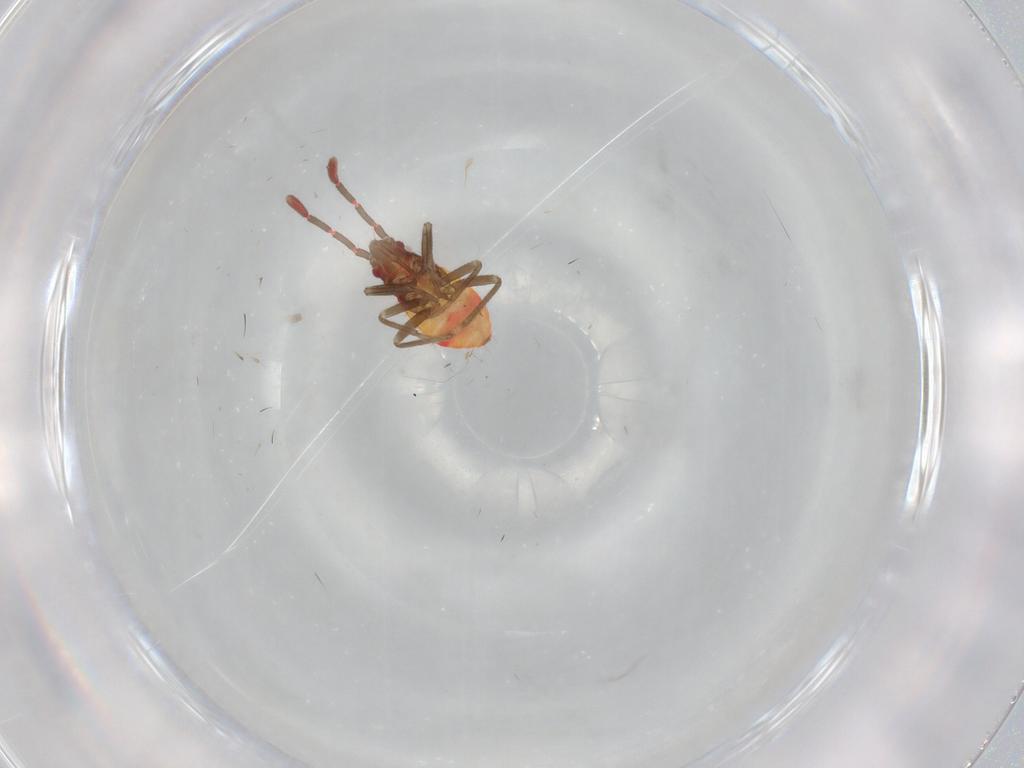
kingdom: Animalia
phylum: Arthropoda
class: Insecta
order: Hemiptera
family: Rhyparochromidae
